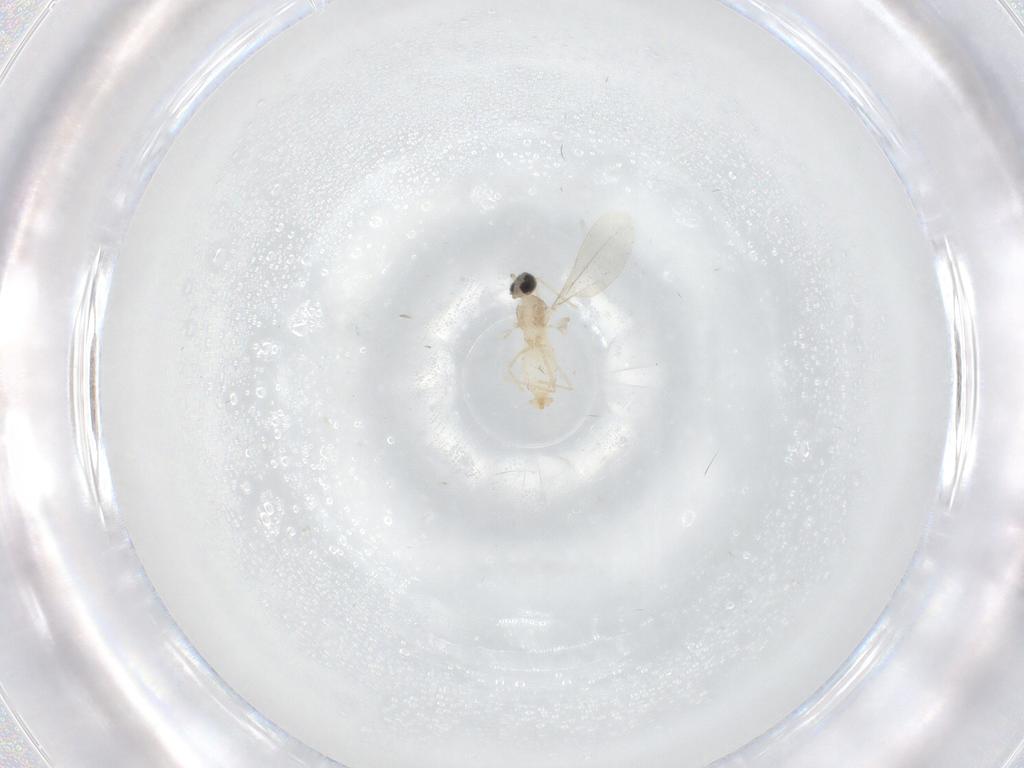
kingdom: Animalia
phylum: Arthropoda
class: Insecta
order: Diptera
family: Cecidomyiidae
